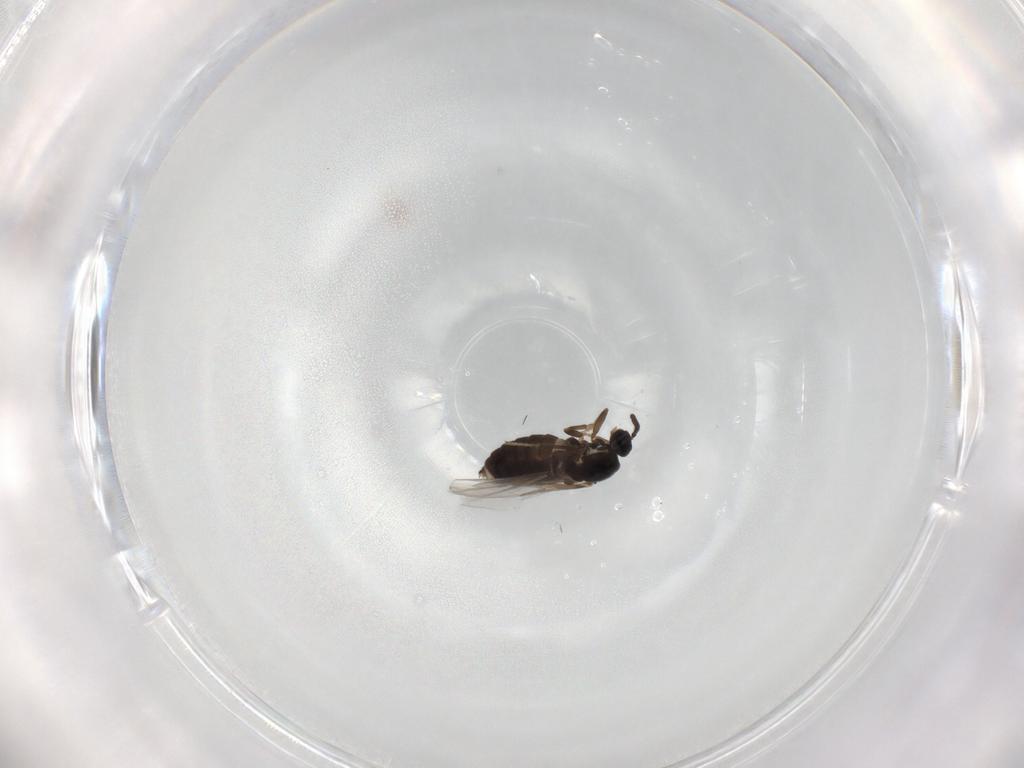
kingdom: Animalia
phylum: Arthropoda
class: Insecta
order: Diptera
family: Scatopsidae
